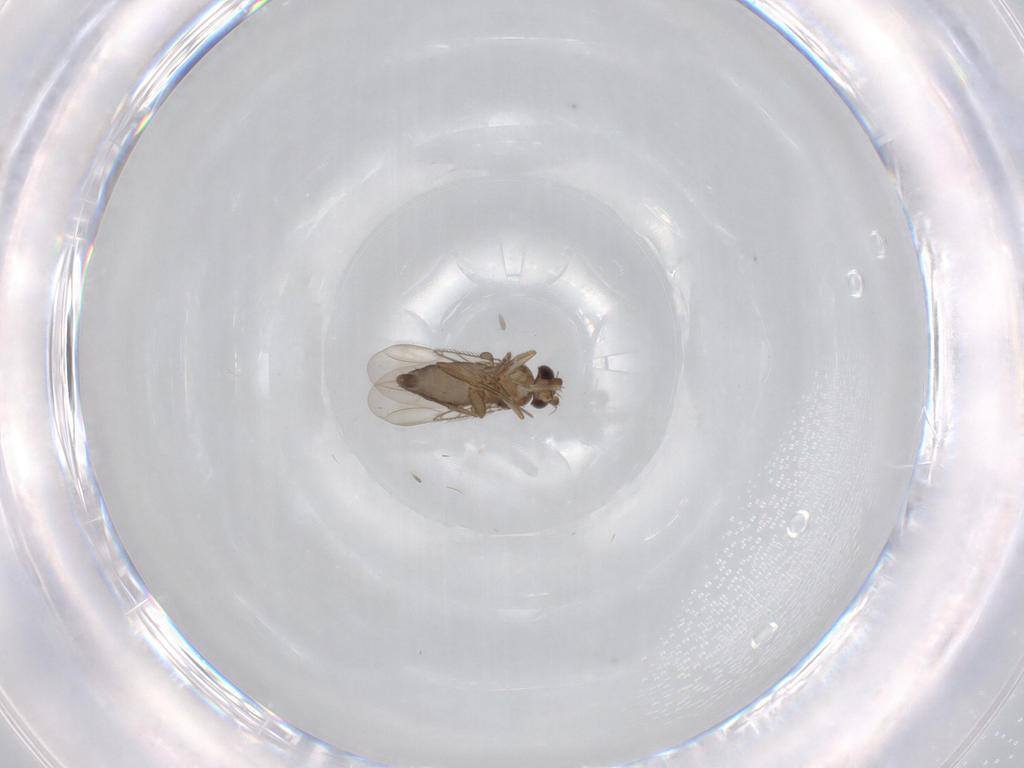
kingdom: Animalia
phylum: Arthropoda
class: Insecta
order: Diptera
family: Phoridae
